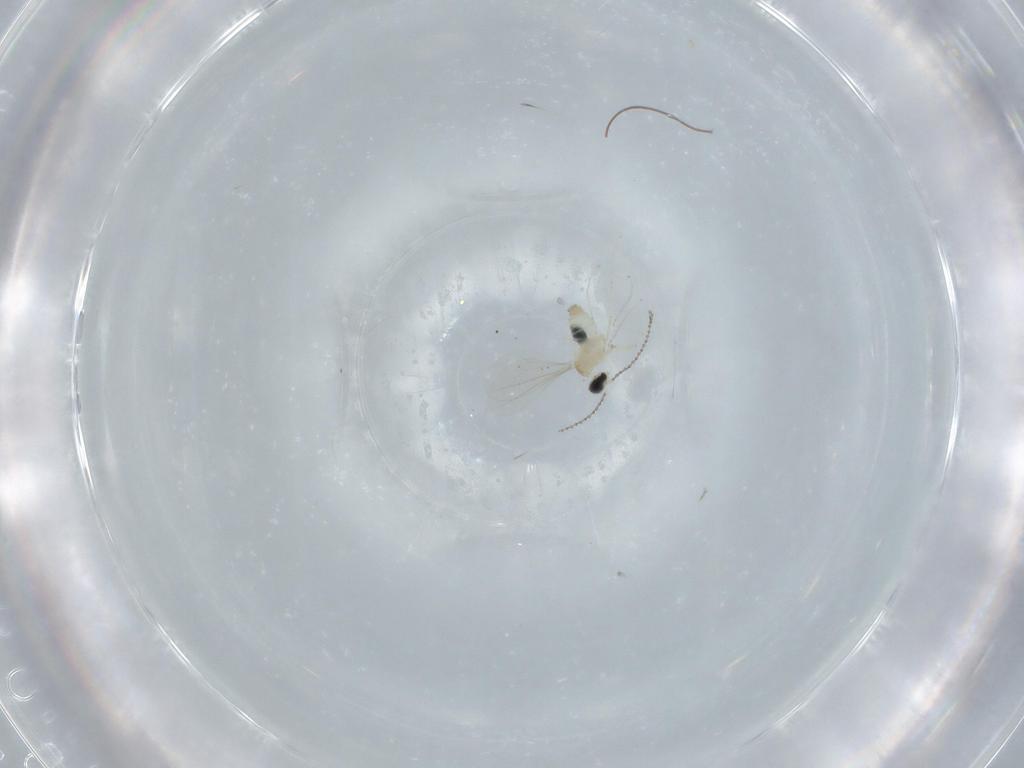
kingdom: Animalia
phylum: Arthropoda
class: Insecta
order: Diptera
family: Cecidomyiidae
